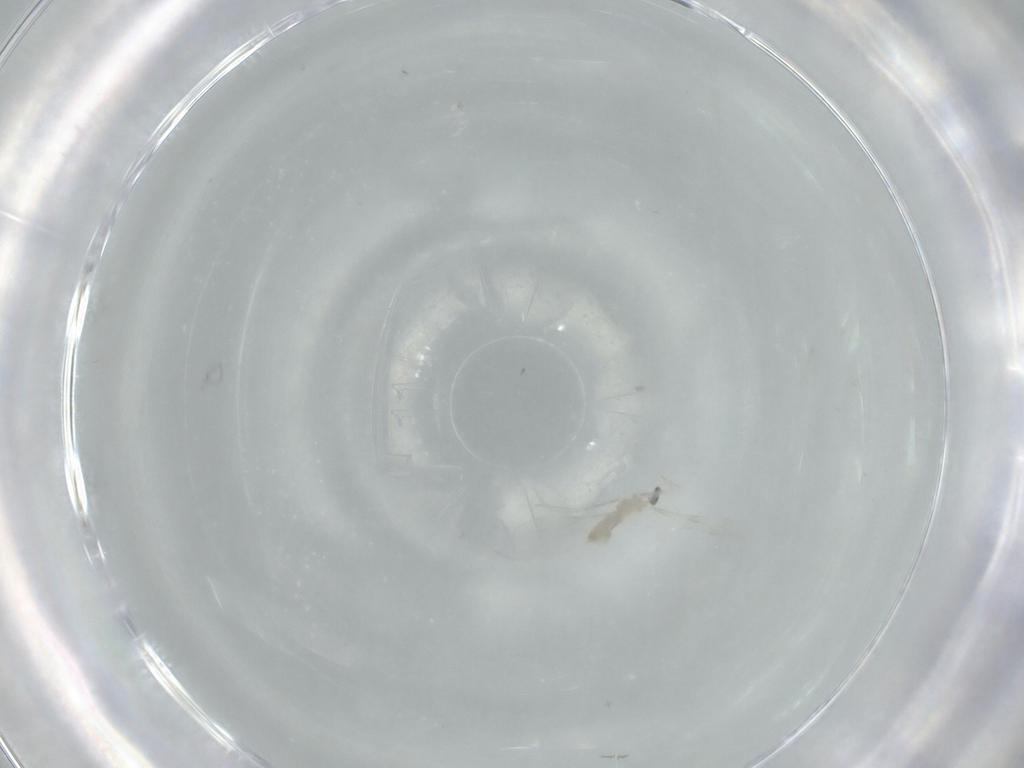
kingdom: Animalia
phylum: Arthropoda
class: Insecta
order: Diptera
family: Cecidomyiidae
